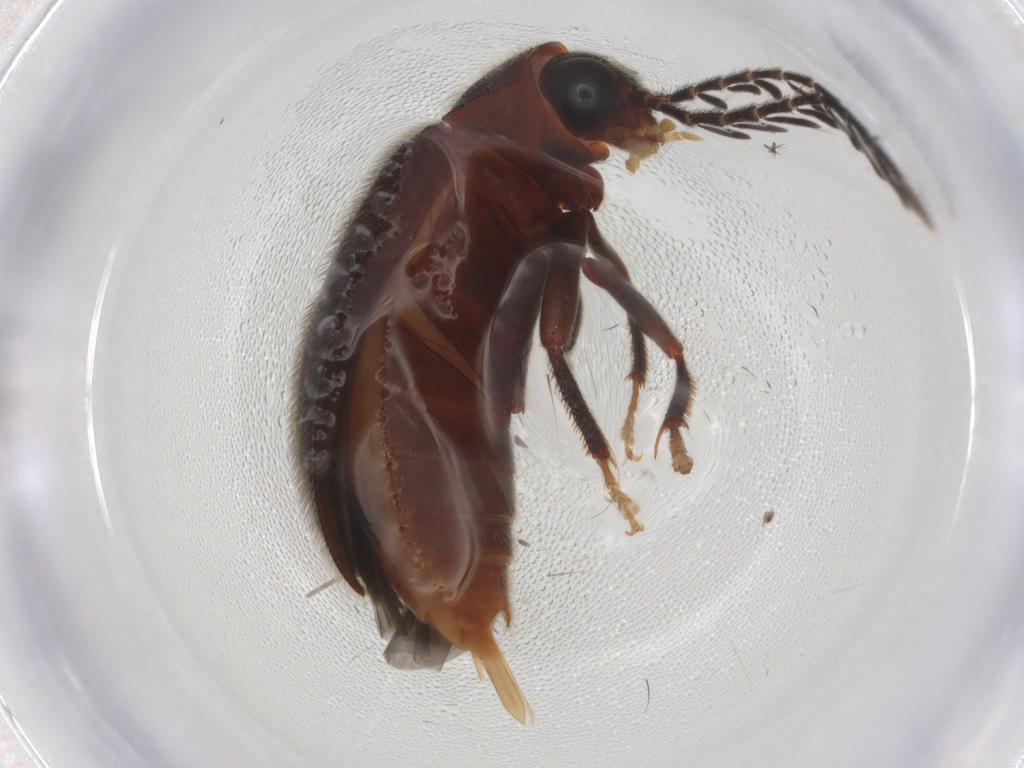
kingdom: Animalia
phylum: Arthropoda
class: Insecta
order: Coleoptera
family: Ptilodactylidae
